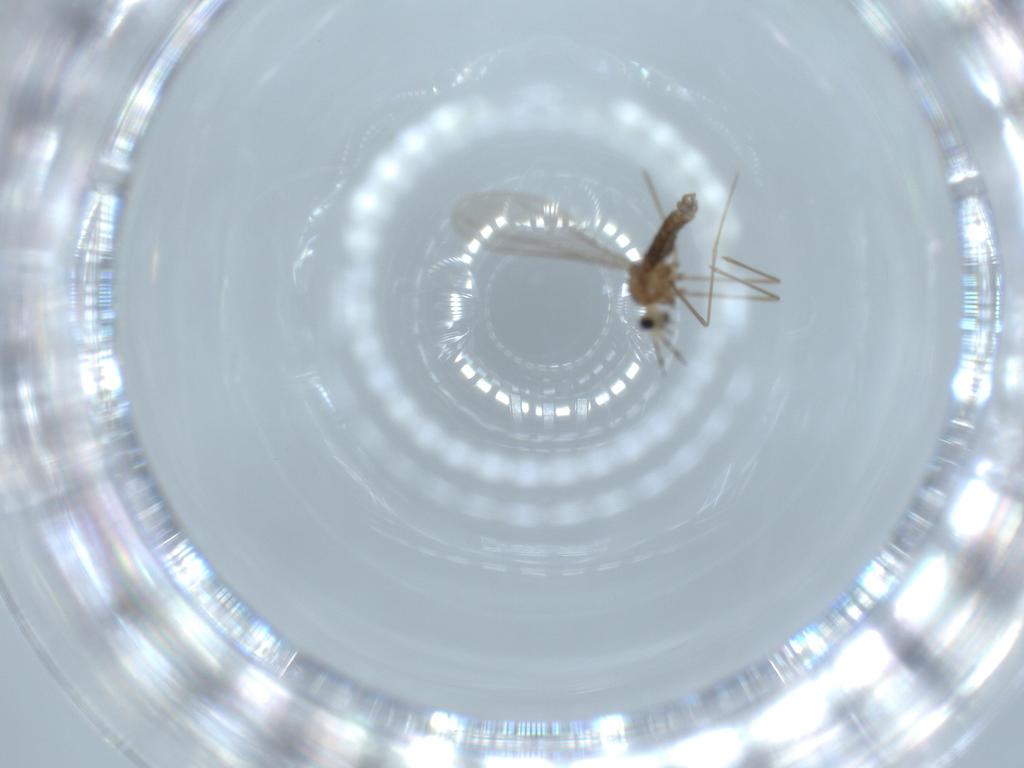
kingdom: Animalia
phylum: Arthropoda
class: Insecta
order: Diptera
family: Cecidomyiidae
